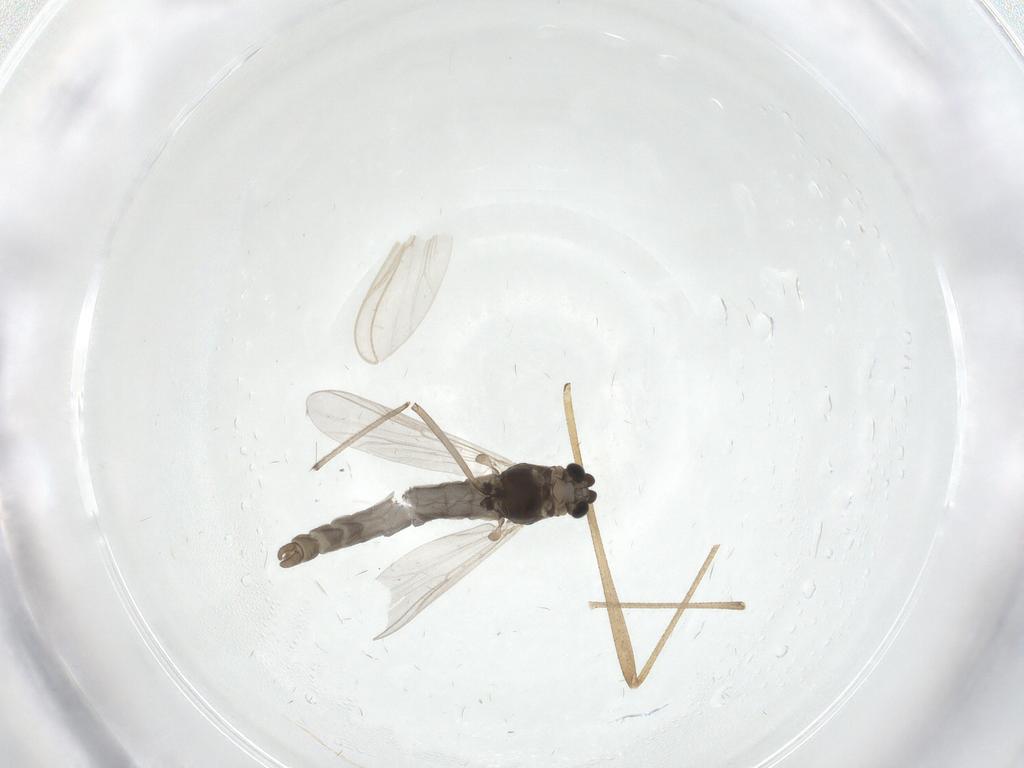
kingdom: Animalia
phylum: Arthropoda
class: Insecta
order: Diptera
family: Chironomidae
